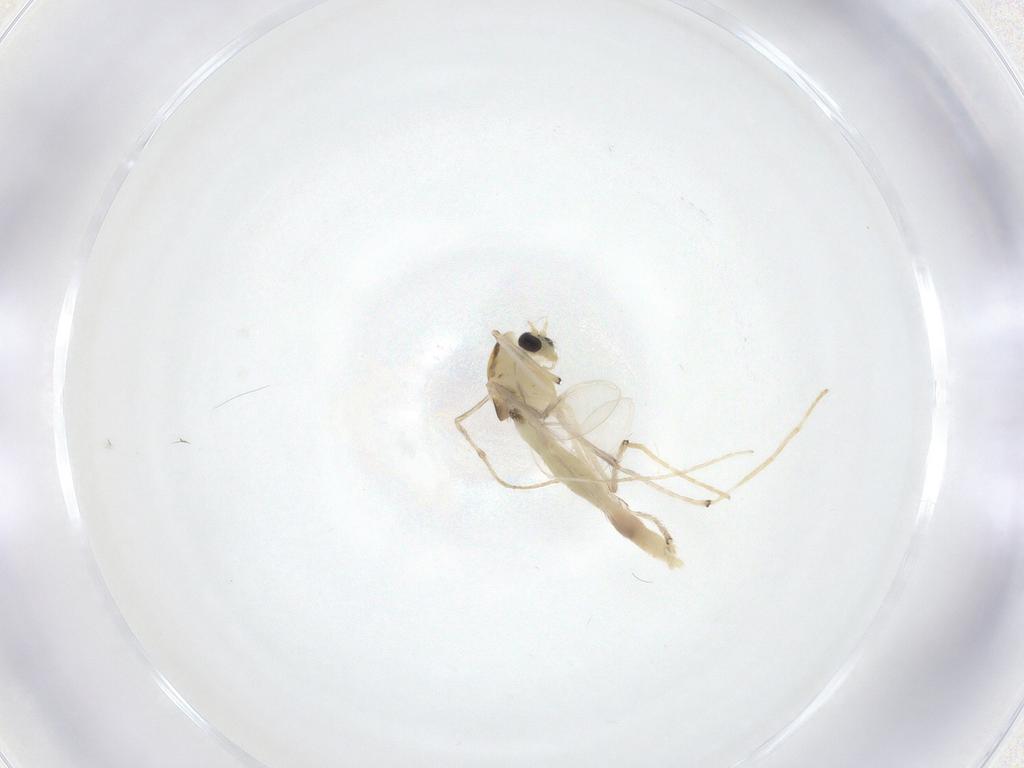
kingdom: Animalia
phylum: Arthropoda
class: Insecta
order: Diptera
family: Chironomidae
